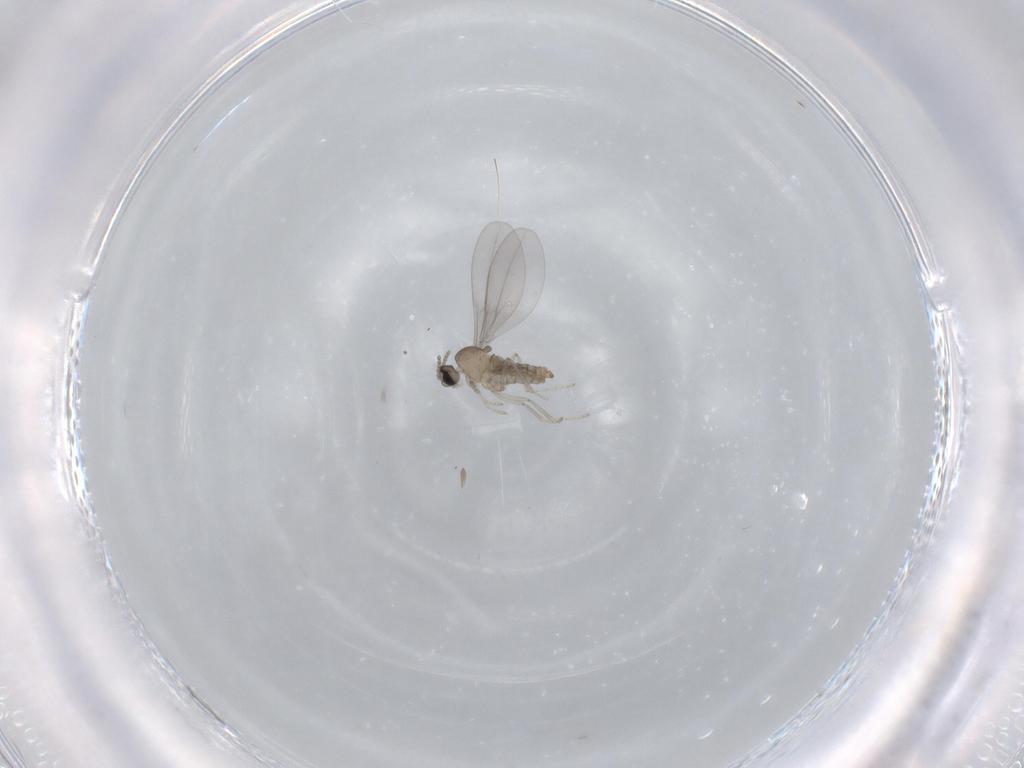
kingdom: Animalia
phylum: Arthropoda
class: Insecta
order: Diptera
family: Cecidomyiidae
